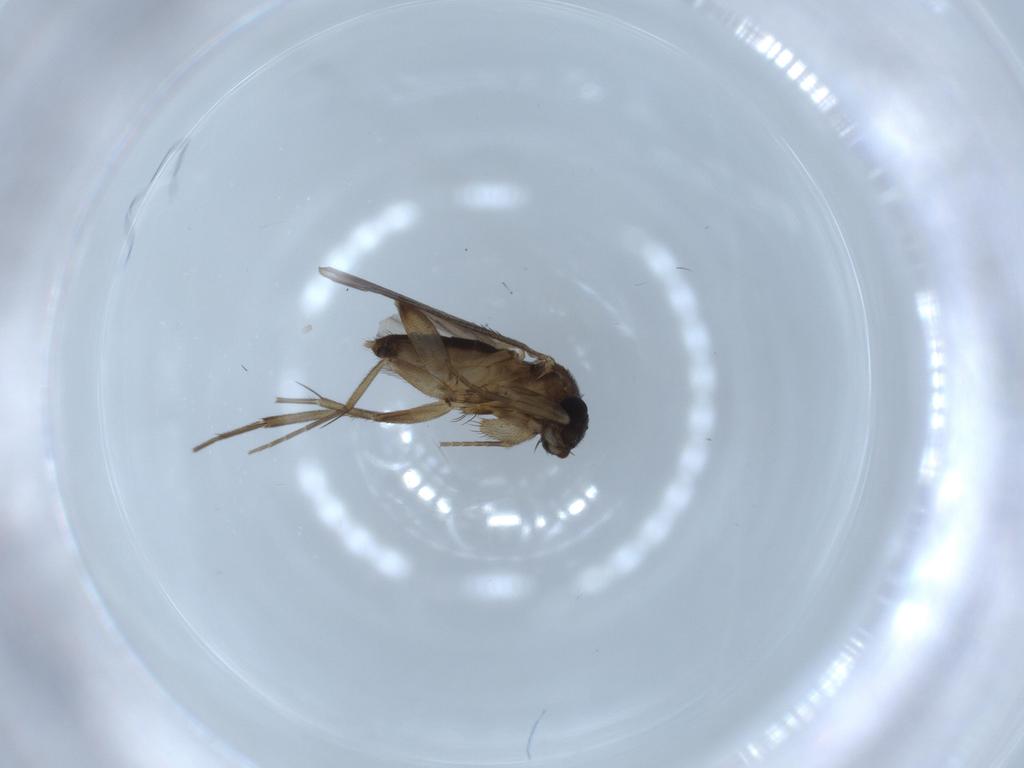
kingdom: Animalia
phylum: Arthropoda
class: Insecta
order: Diptera
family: Phoridae
